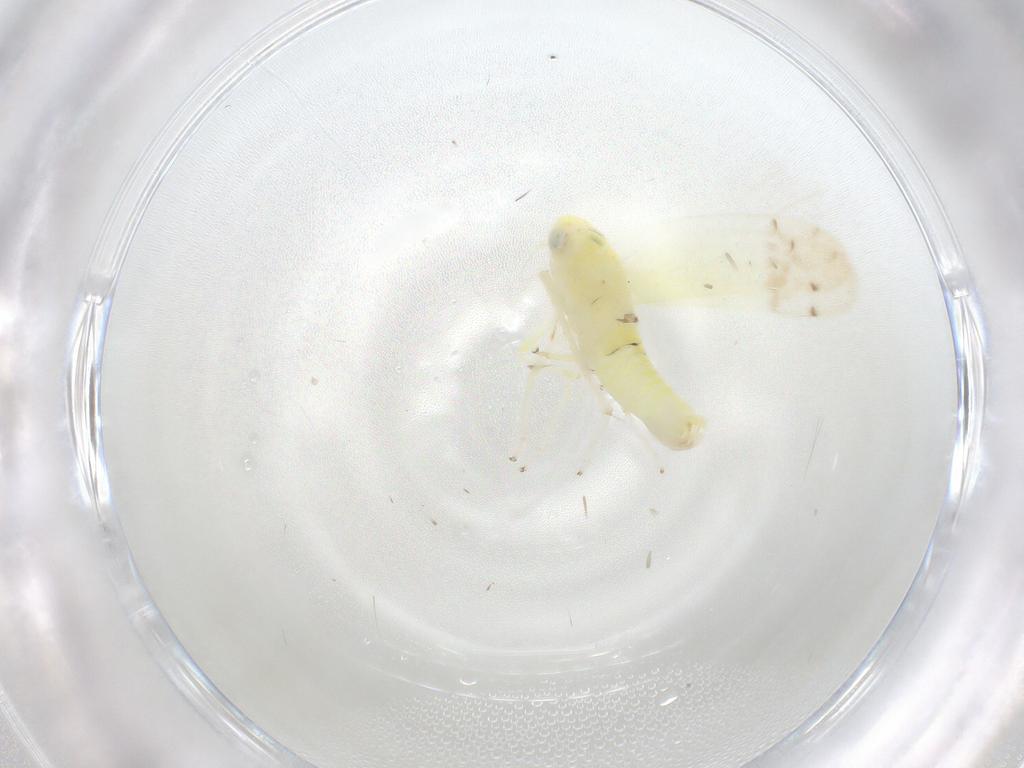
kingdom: Animalia
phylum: Arthropoda
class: Insecta
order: Hemiptera
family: Cicadellidae
